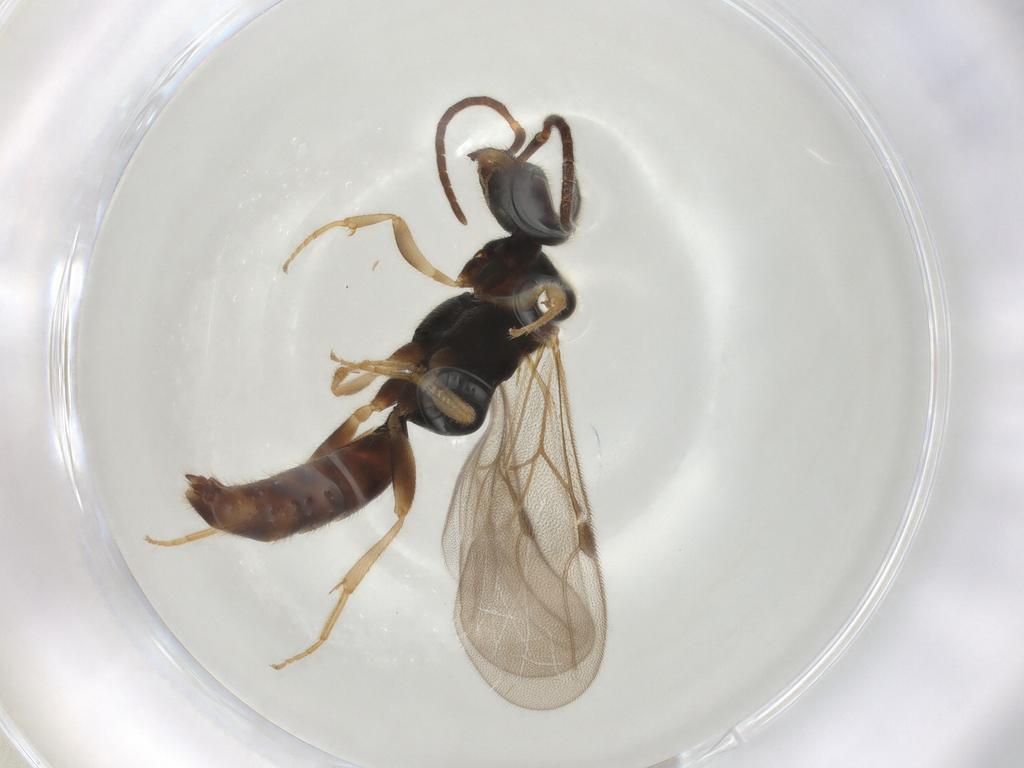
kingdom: Animalia
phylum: Arthropoda
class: Insecta
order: Hymenoptera
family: Bethylidae
